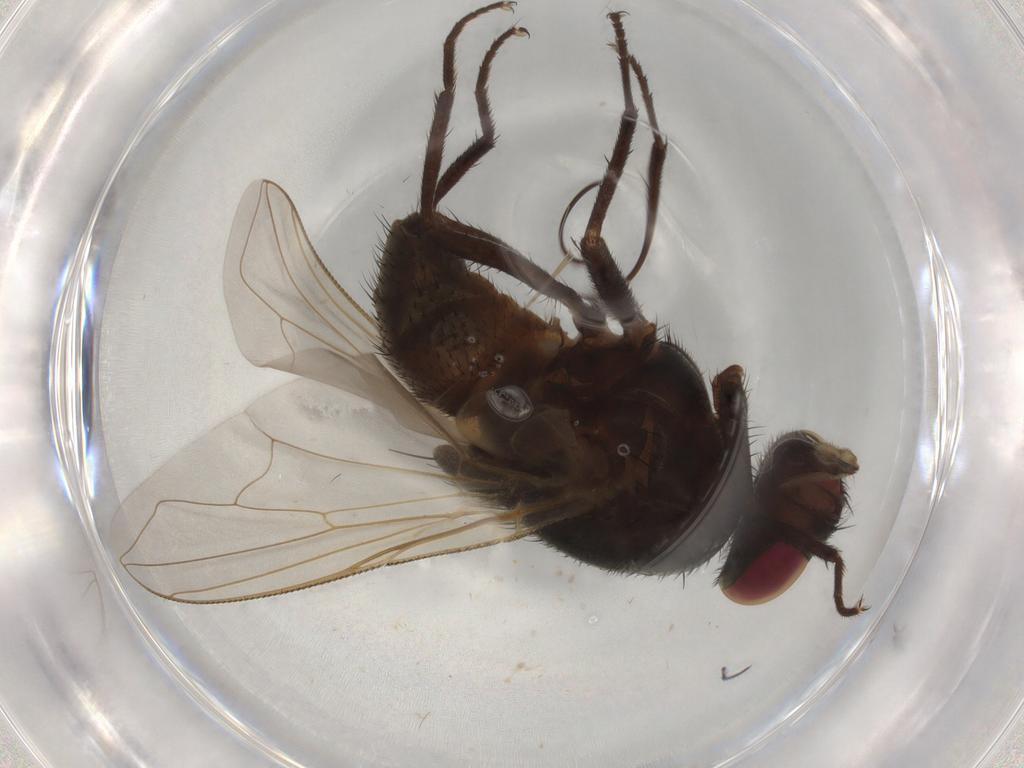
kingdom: Animalia
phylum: Arthropoda
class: Insecta
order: Diptera
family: Muscidae
